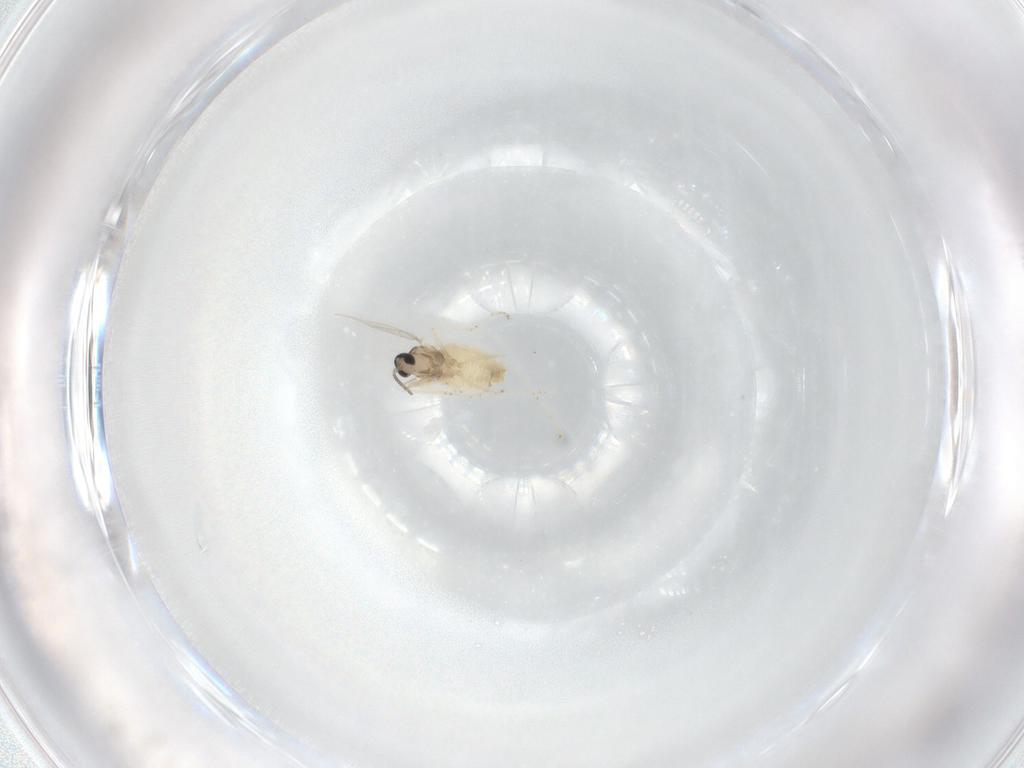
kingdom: Animalia
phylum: Arthropoda
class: Insecta
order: Diptera
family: Cecidomyiidae
